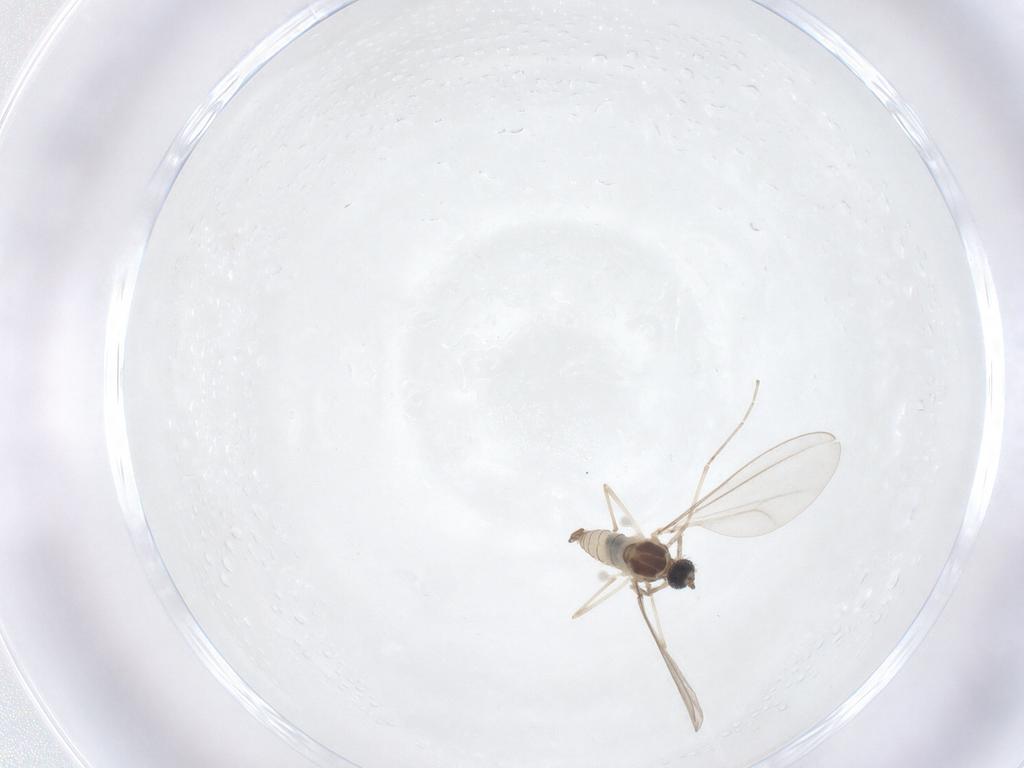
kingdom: Animalia
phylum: Arthropoda
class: Insecta
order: Diptera
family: Cecidomyiidae
